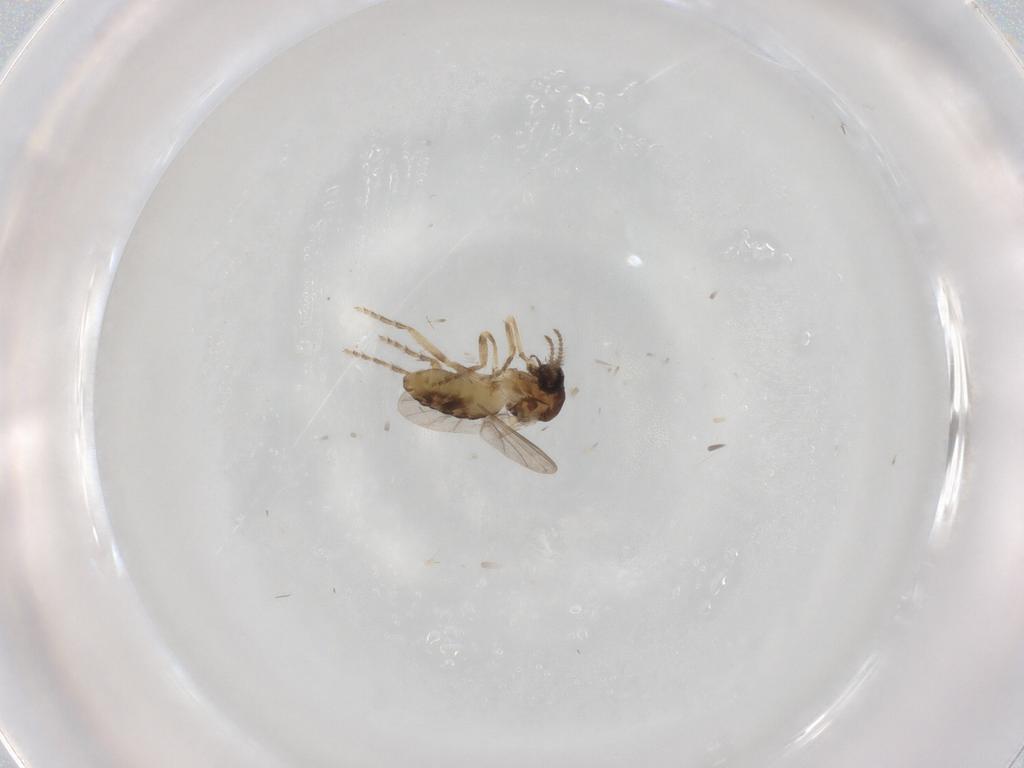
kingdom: Animalia
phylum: Arthropoda
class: Insecta
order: Diptera
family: Ceratopogonidae
